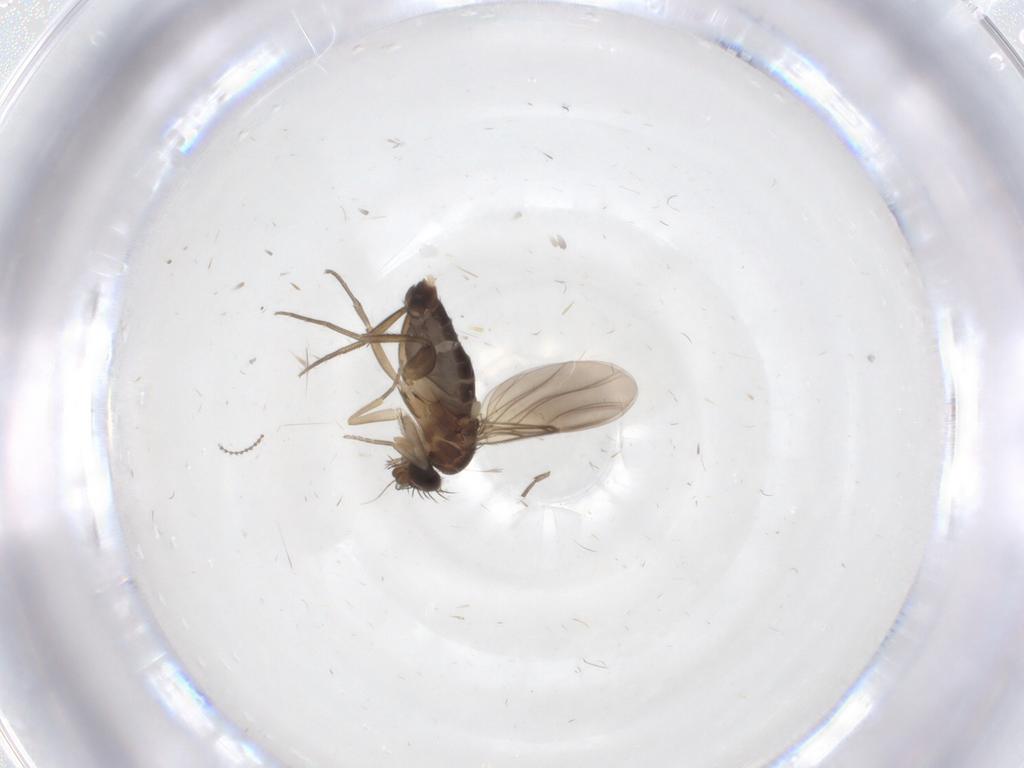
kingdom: Animalia
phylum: Arthropoda
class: Insecta
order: Diptera
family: Phoridae
